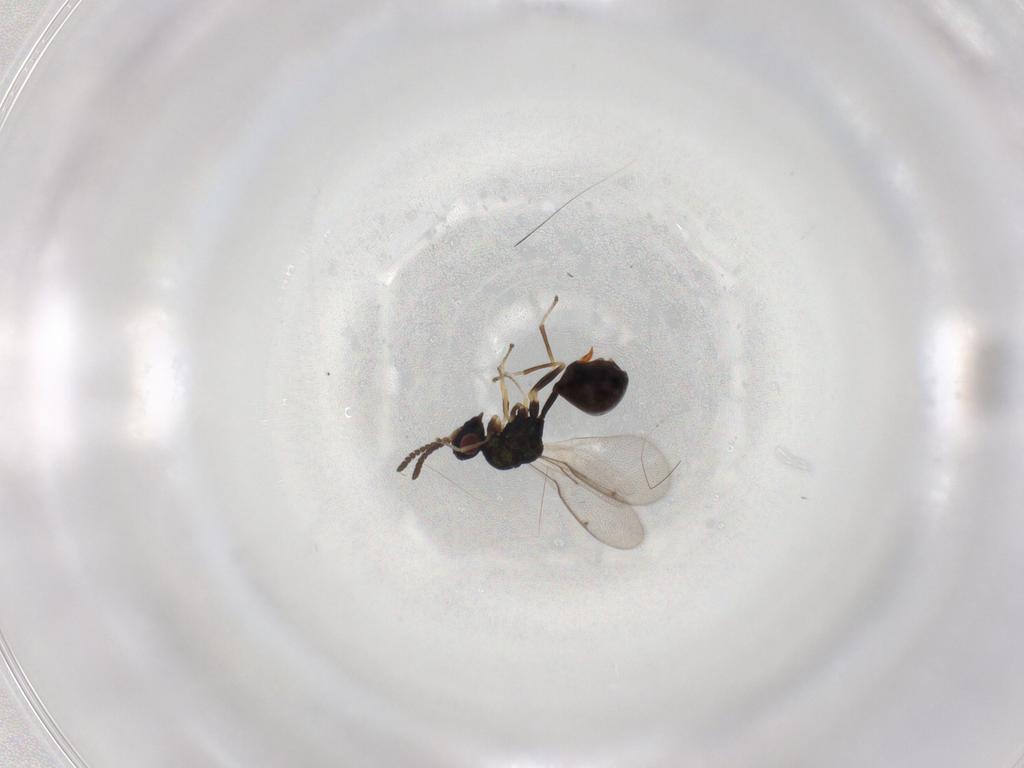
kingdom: Animalia
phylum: Arthropoda
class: Insecta
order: Hymenoptera
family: Eucharitidae
